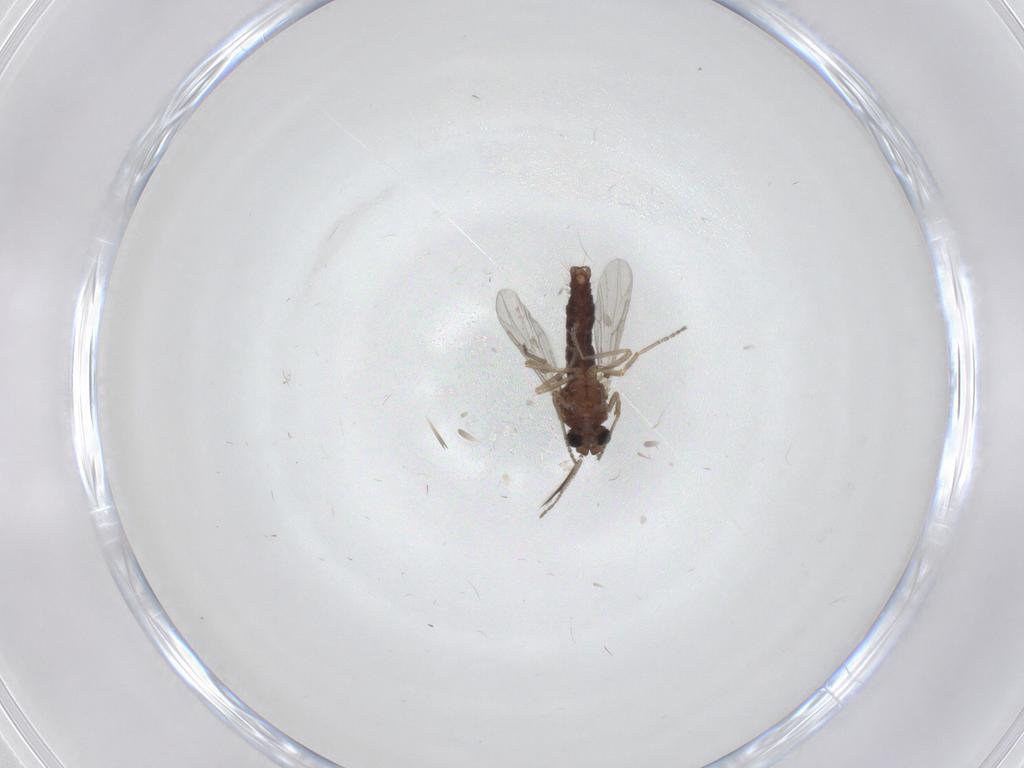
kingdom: Animalia
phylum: Arthropoda
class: Insecta
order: Diptera
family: Ceratopogonidae
